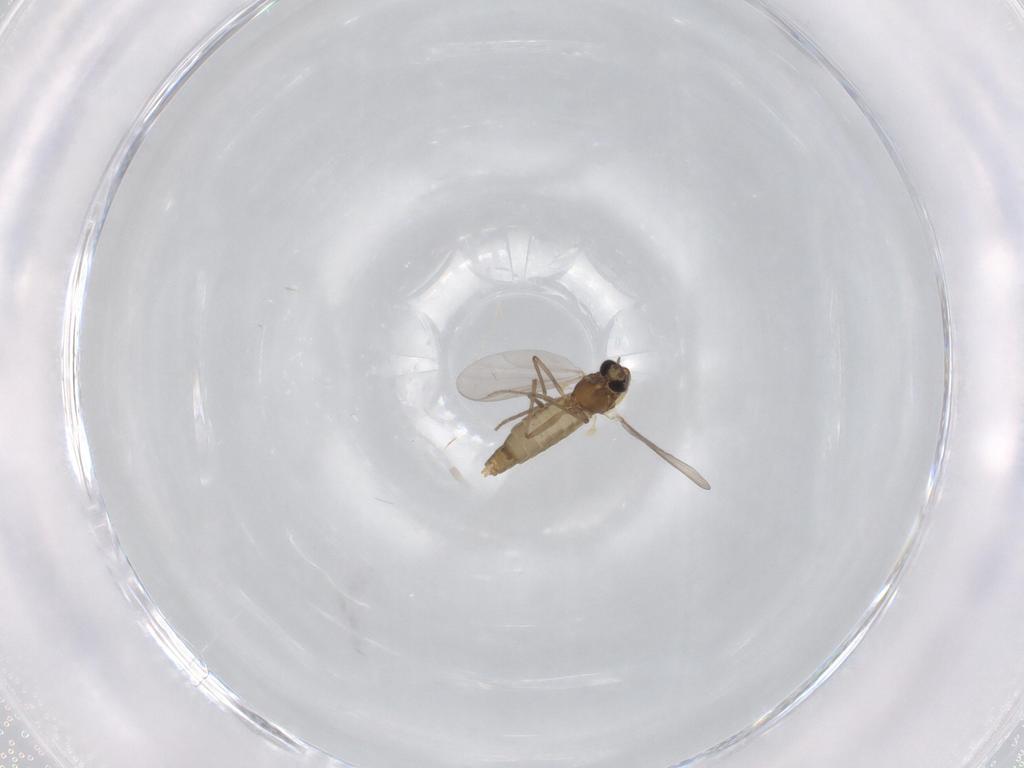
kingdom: Animalia
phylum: Arthropoda
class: Insecta
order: Diptera
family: Chironomidae
